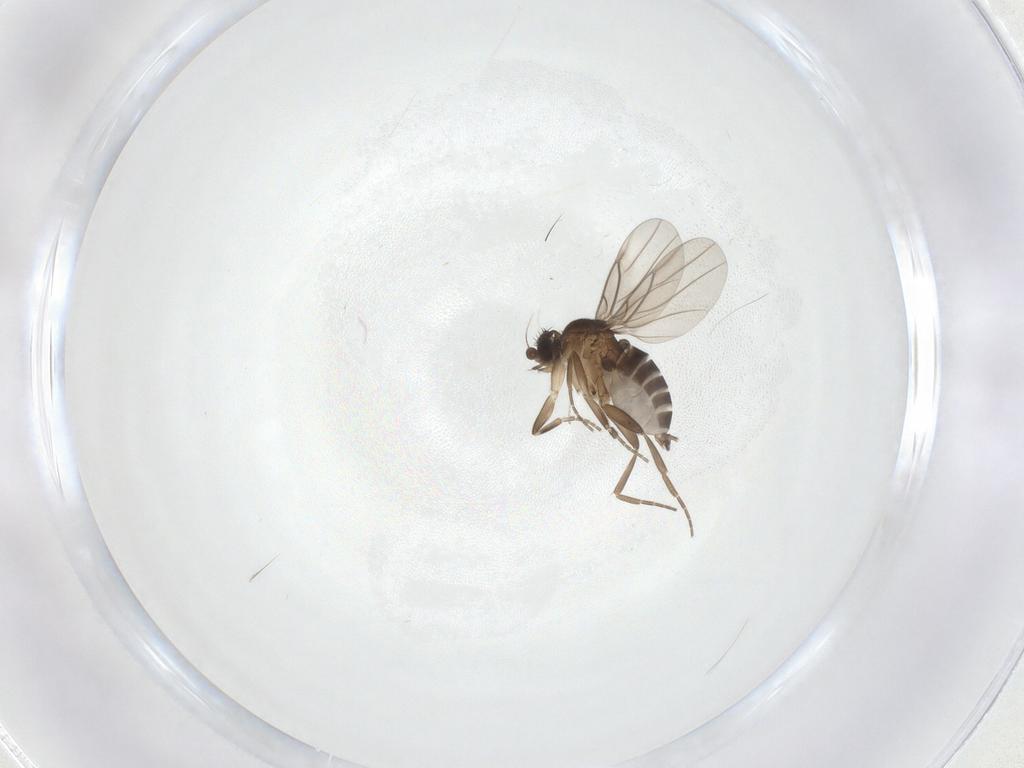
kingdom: Animalia
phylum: Arthropoda
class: Insecta
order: Diptera
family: Phoridae
